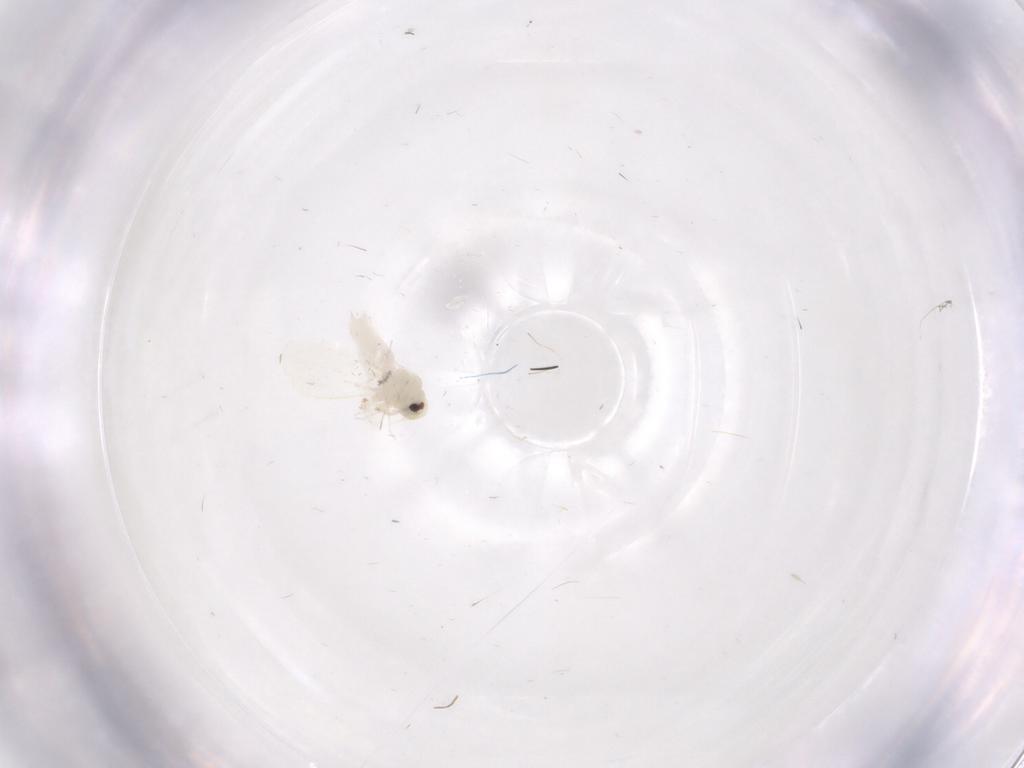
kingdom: Animalia
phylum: Arthropoda
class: Insecta
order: Hemiptera
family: Aleyrodidae
